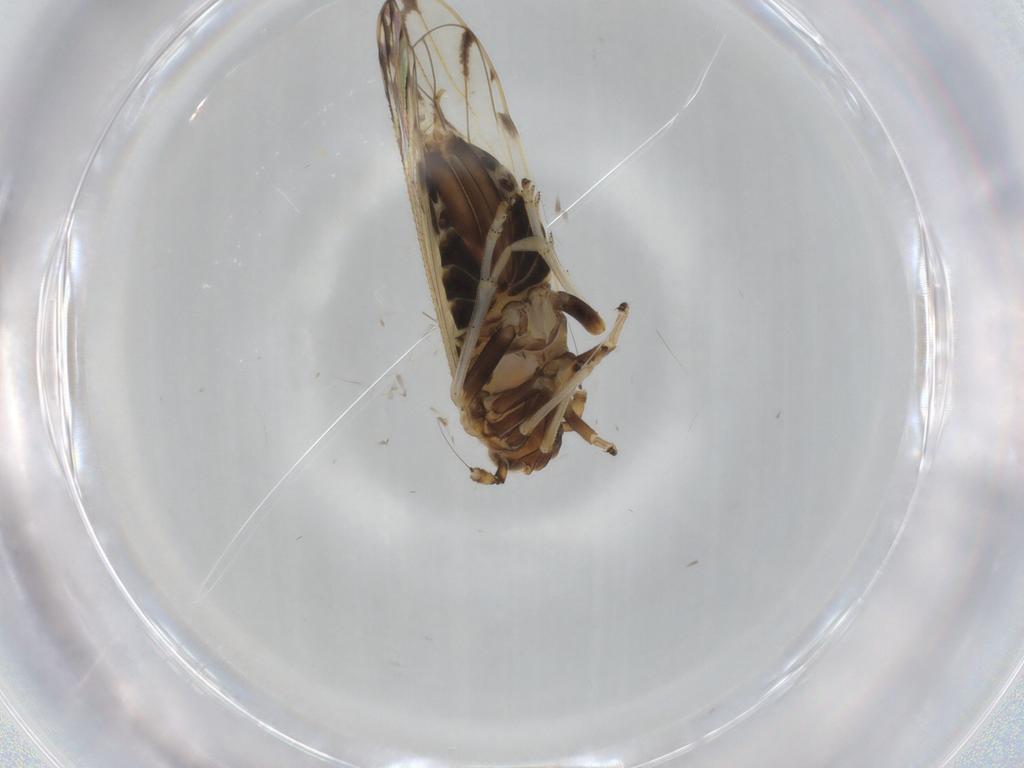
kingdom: Animalia
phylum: Arthropoda
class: Insecta
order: Hemiptera
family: Delphacidae
